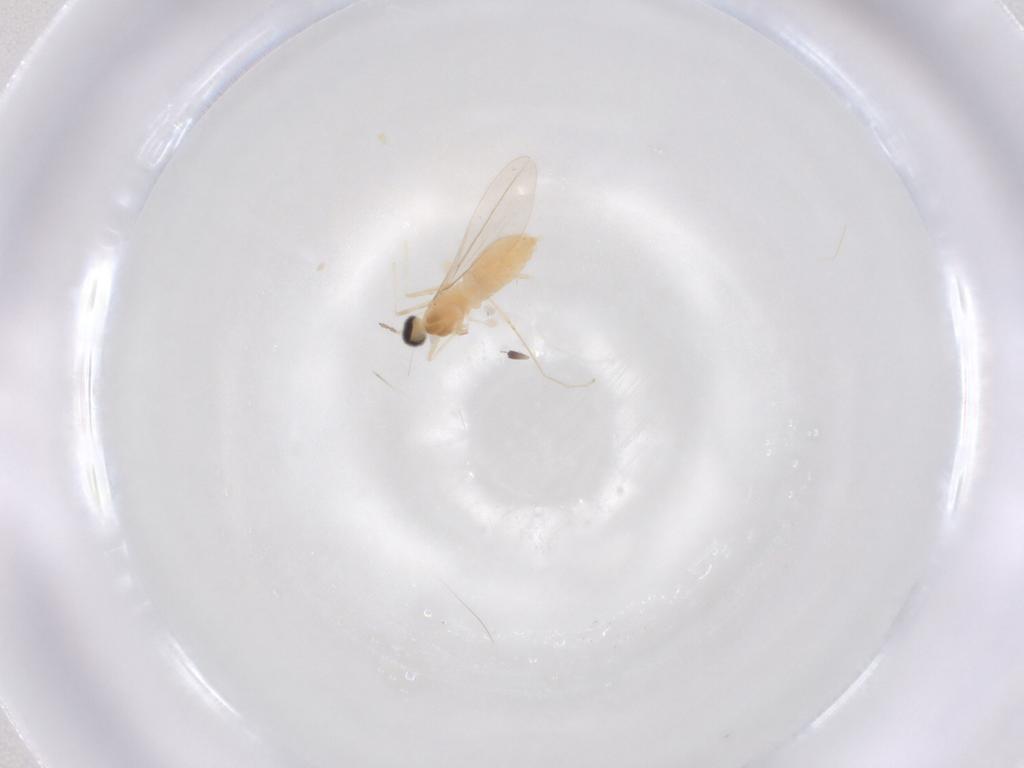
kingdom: Animalia
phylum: Arthropoda
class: Insecta
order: Diptera
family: Cecidomyiidae
